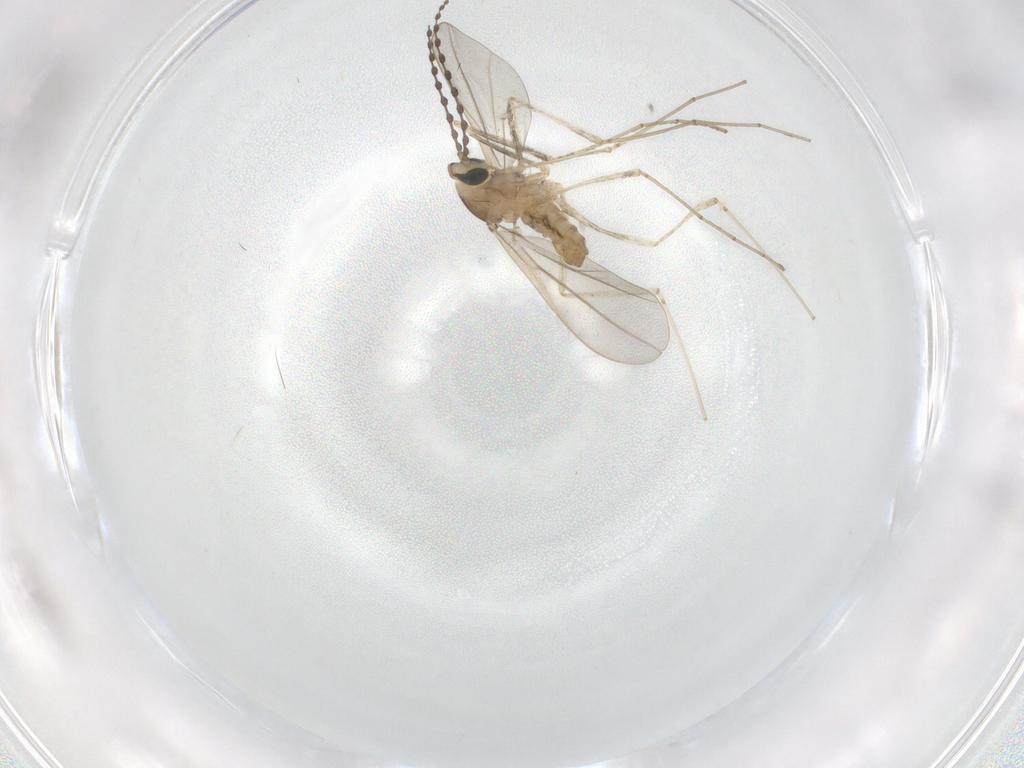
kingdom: Animalia
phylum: Arthropoda
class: Insecta
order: Diptera
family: Cecidomyiidae
